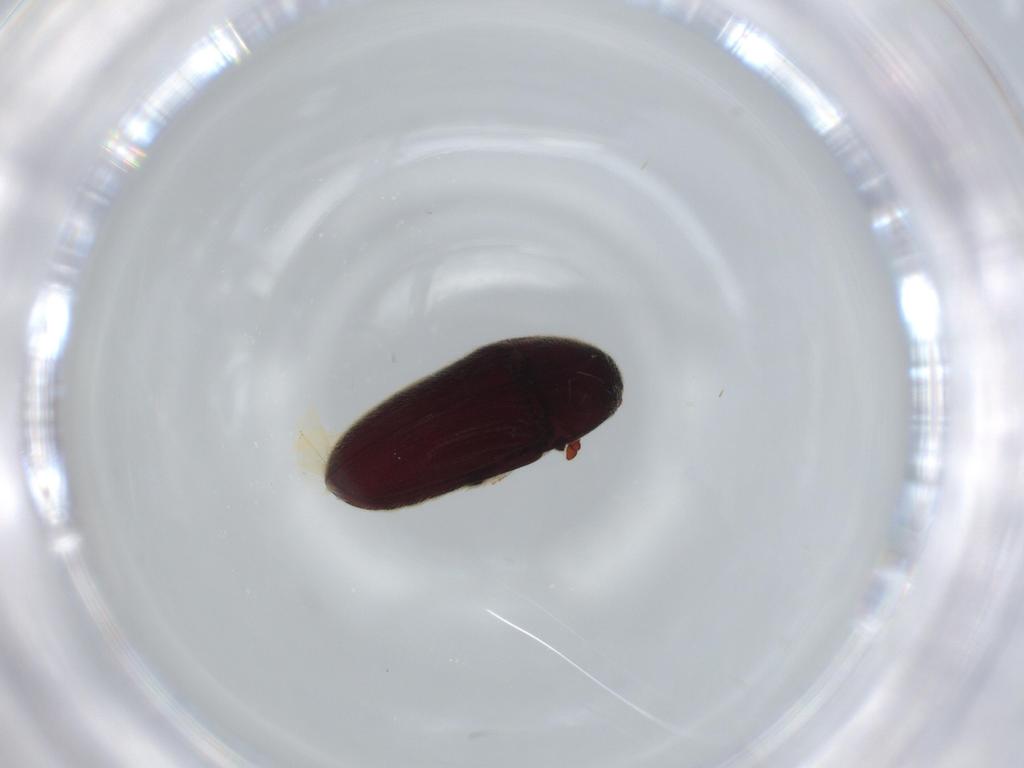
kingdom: Animalia
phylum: Arthropoda
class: Insecta
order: Coleoptera
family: Throscidae
